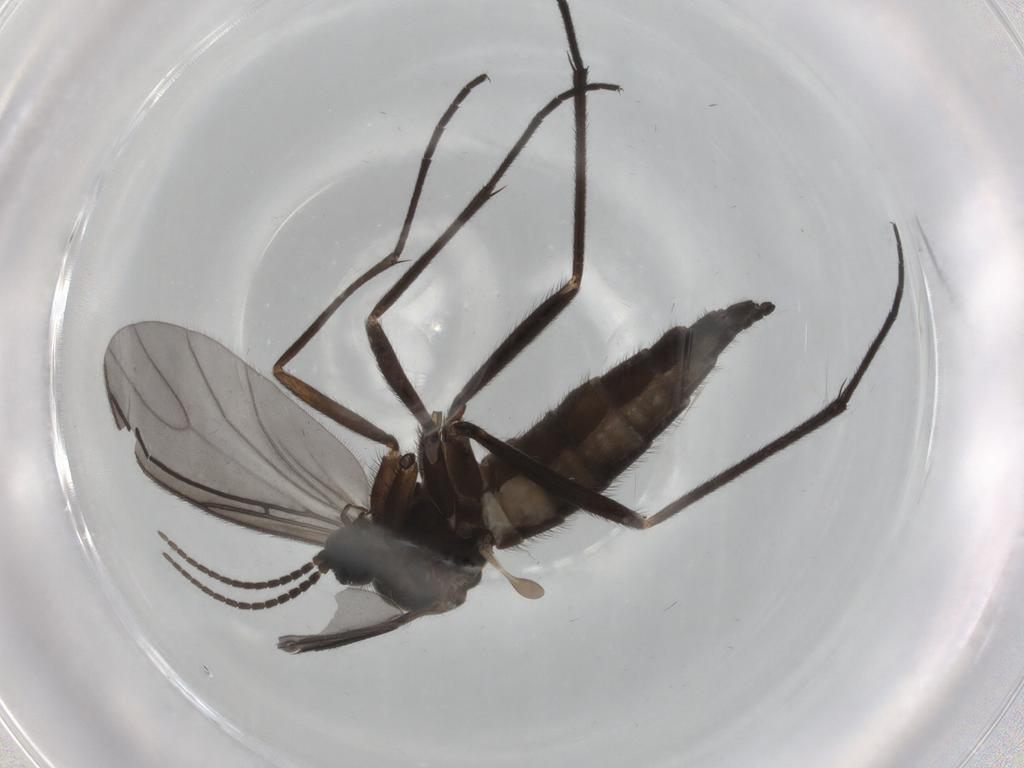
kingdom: Animalia
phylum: Arthropoda
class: Insecta
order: Diptera
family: Sciaridae
